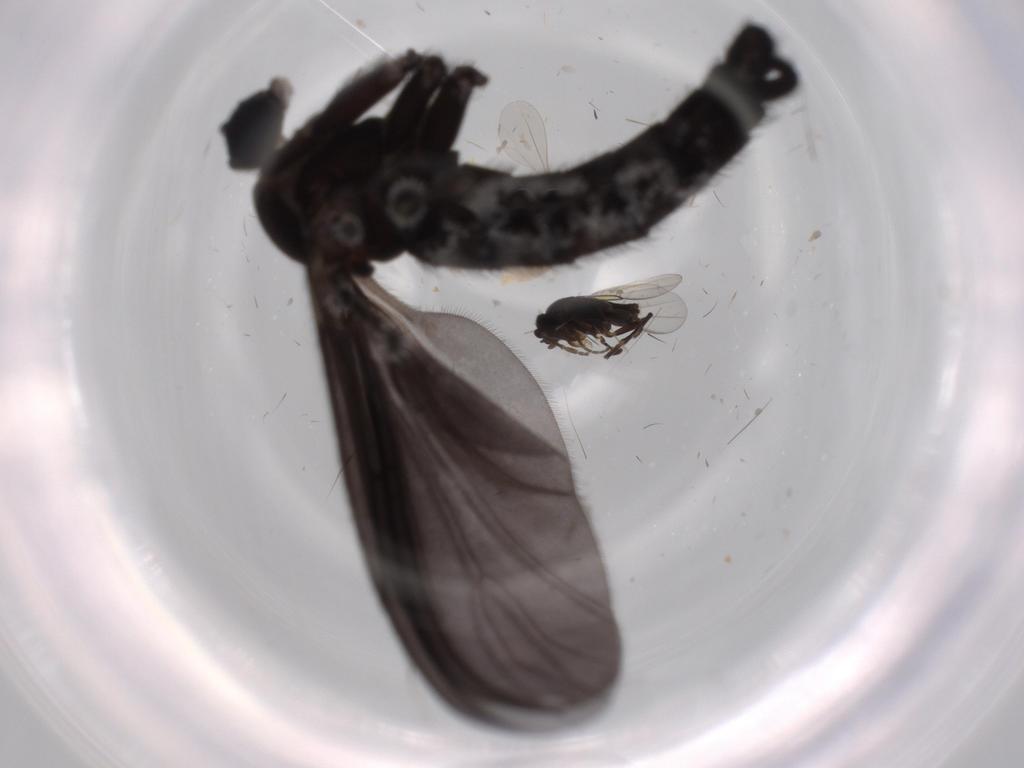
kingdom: Animalia
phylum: Arthropoda
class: Insecta
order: Diptera
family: Phoridae
